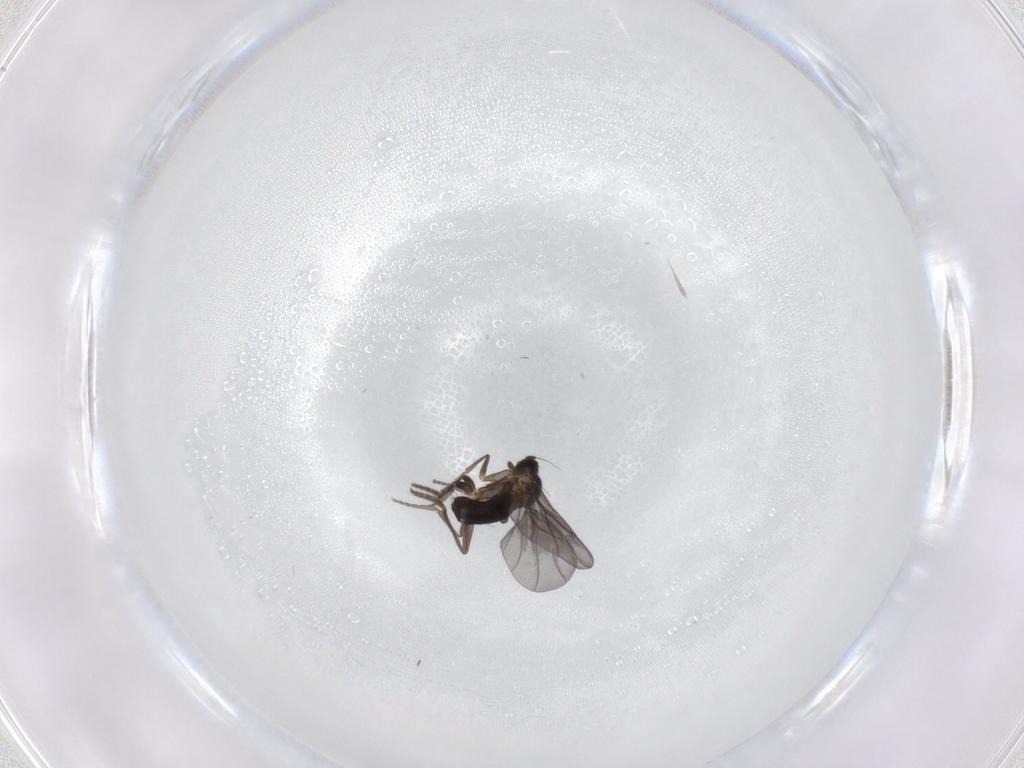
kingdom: Animalia
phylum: Arthropoda
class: Insecta
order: Diptera
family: Phoridae
